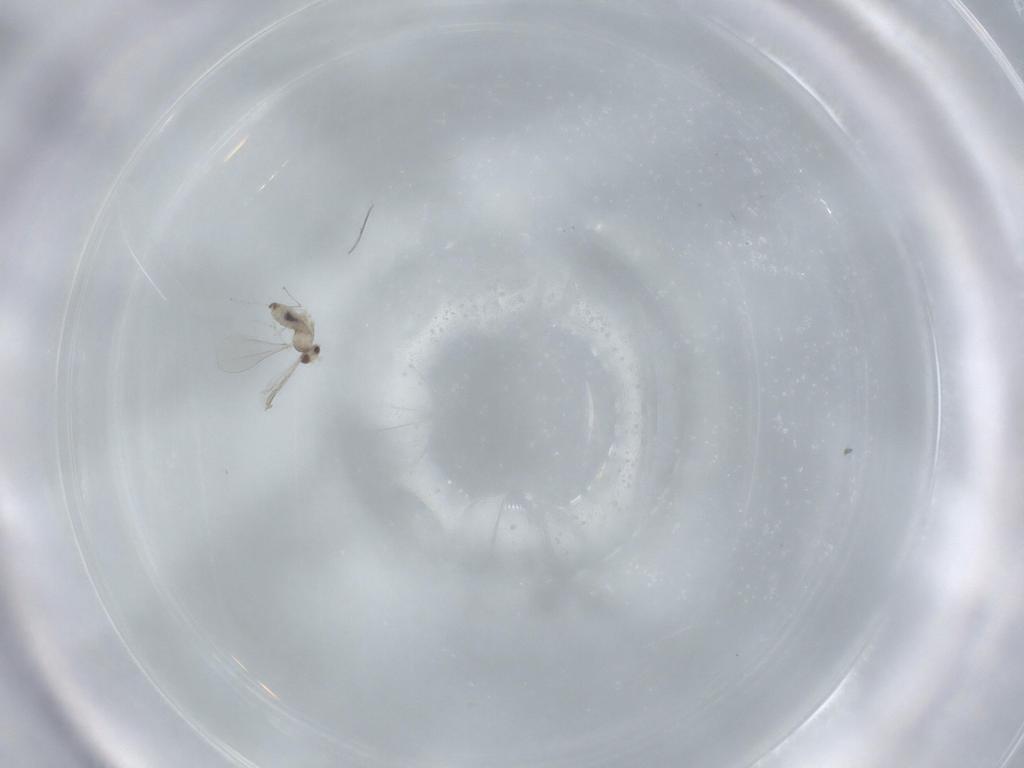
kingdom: Animalia
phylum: Arthropoda
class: Insecta
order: Diptera
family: Cecidomyiidae
